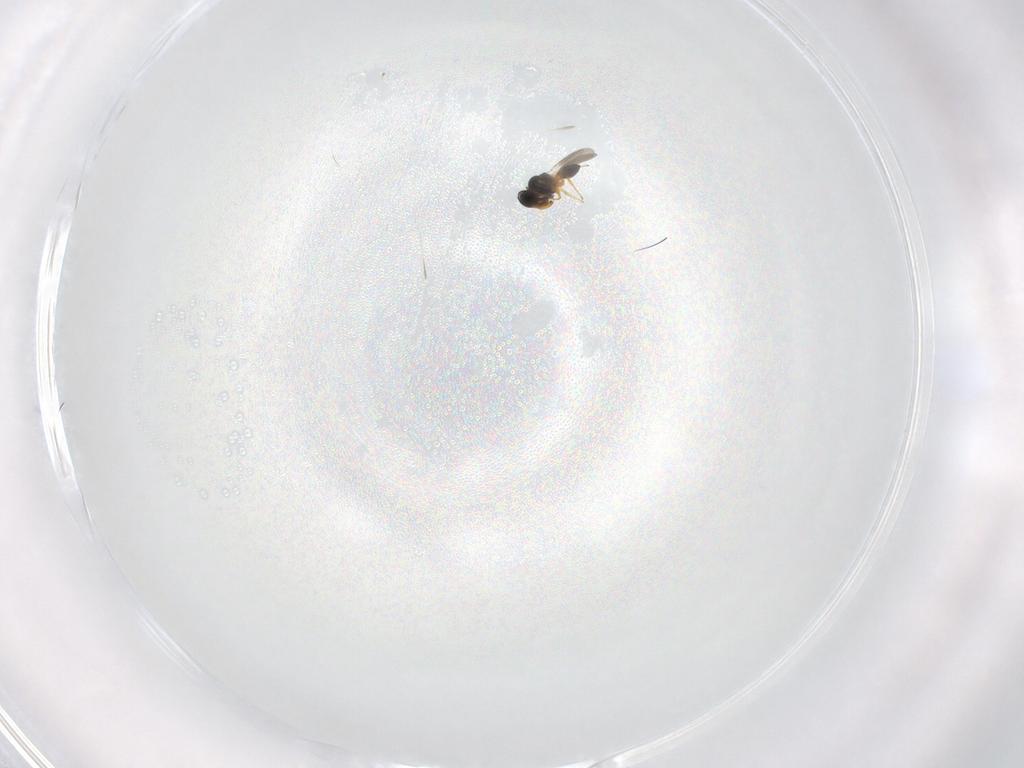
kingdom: Animalia
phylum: Arthropoda
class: Insecta
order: Hymenoptera
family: Platygastridae
